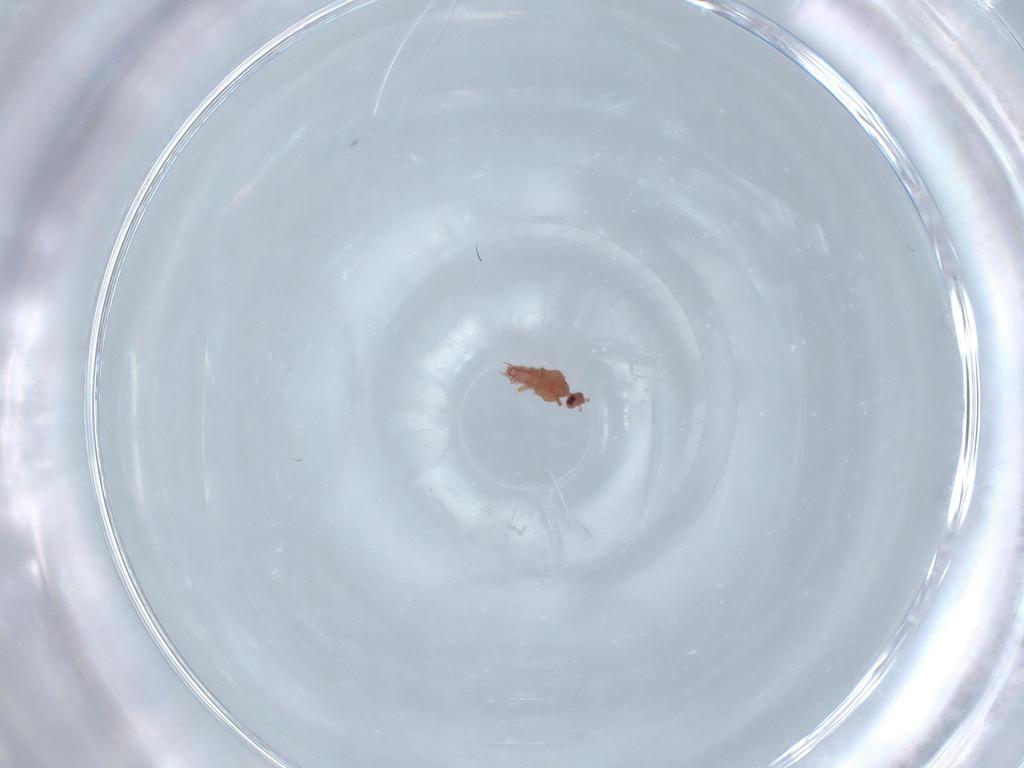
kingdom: Animalia
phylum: Arthropoda
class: Insecta
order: Diptera
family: Cecidomyiidae
